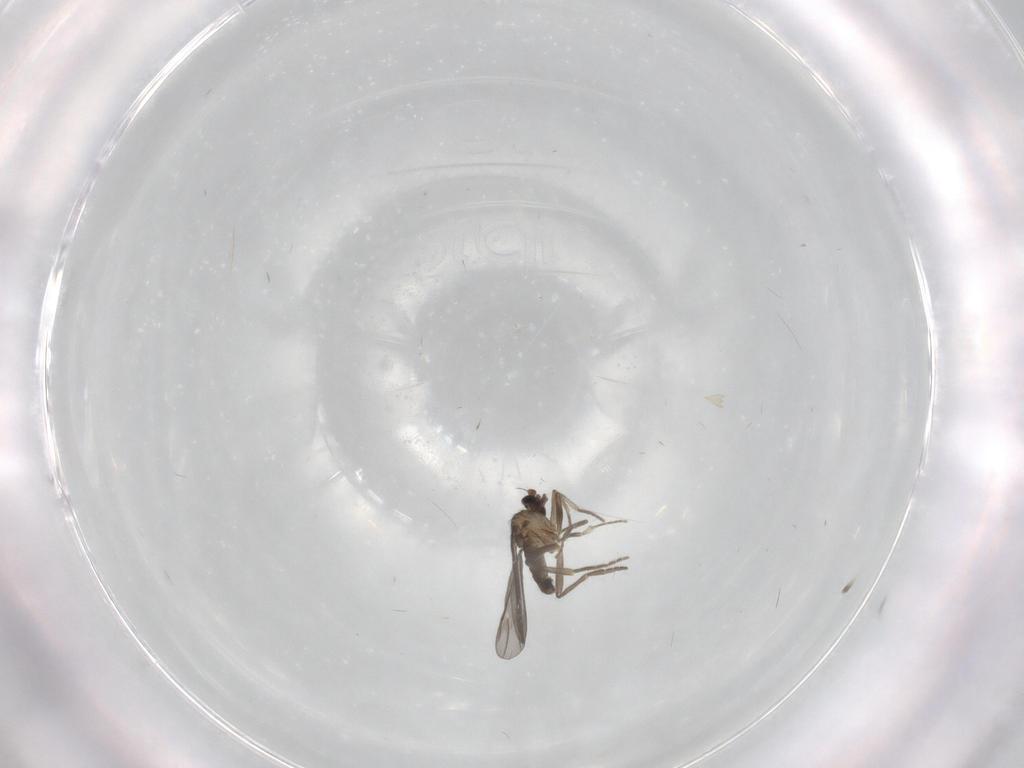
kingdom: Animalia
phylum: Arthropoda
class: Insecta
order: Diptera
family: Phoridae
